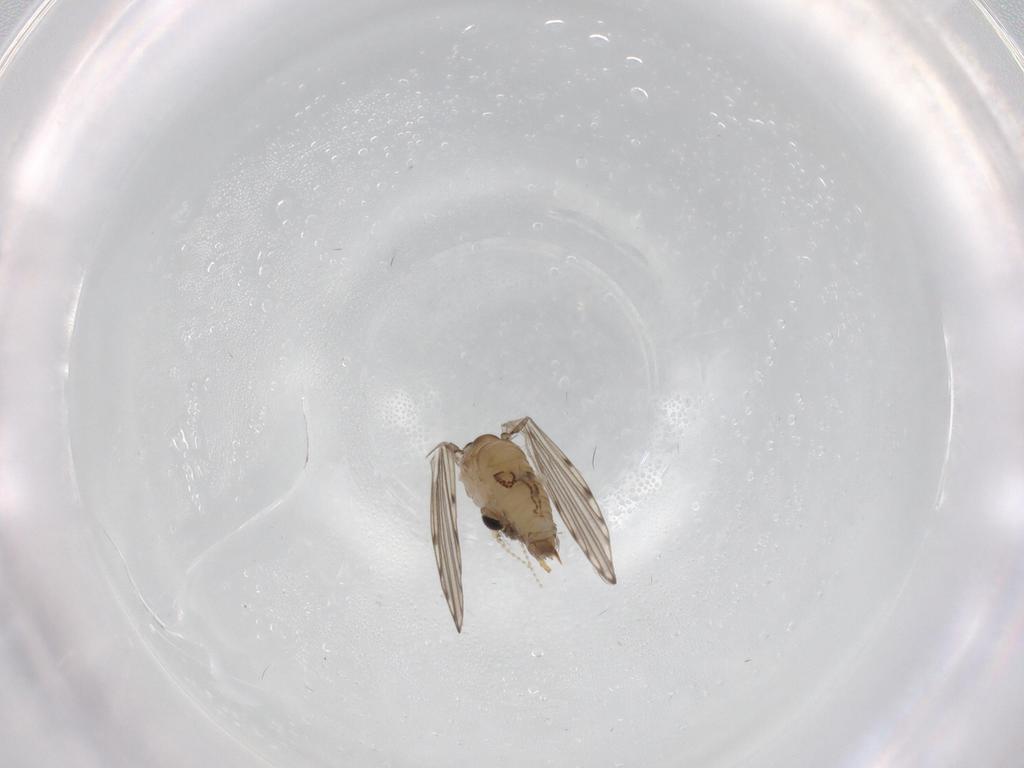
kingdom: Animalia
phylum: Arthropoda
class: Insecta
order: Diptera
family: Psychodidae
